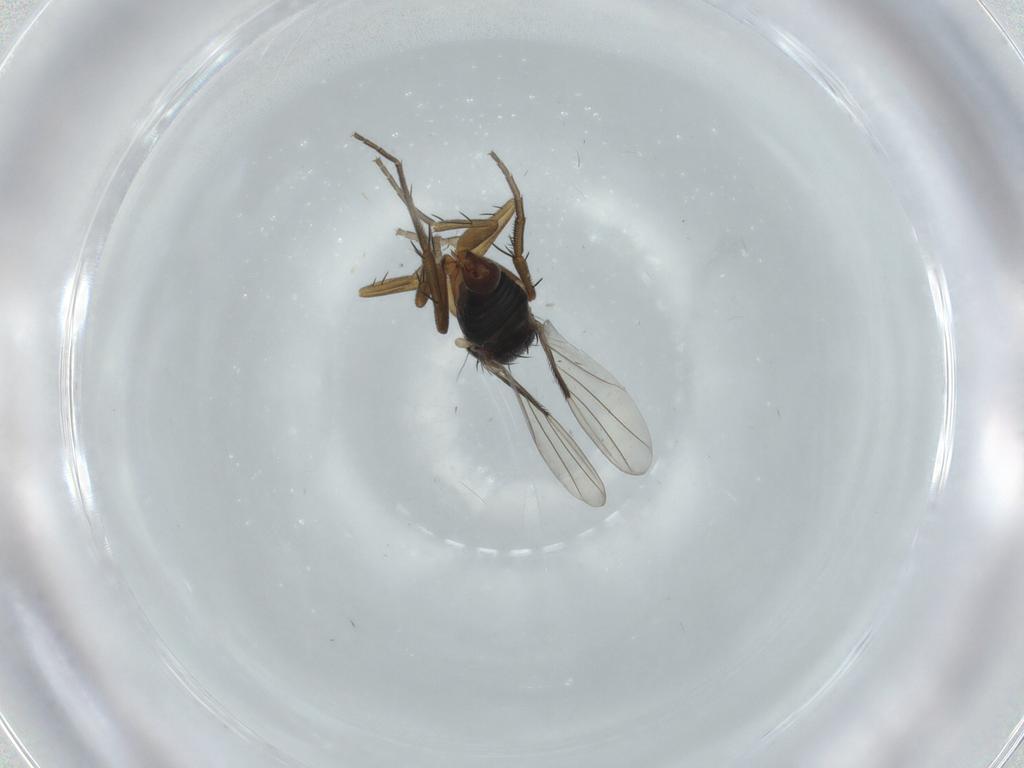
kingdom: Animalia
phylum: Arthropoda
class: Insecta
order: Diptera
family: Phoridae
